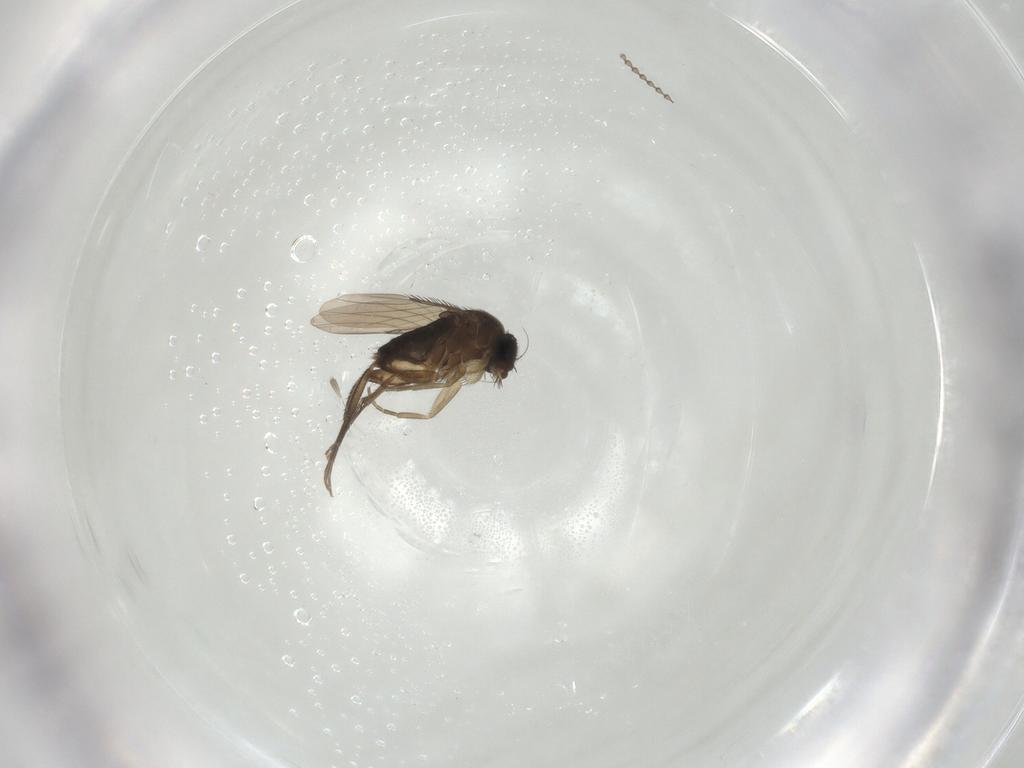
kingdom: Animalia
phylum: Arthropoda
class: Insecta
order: Diptera
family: Phoridae
